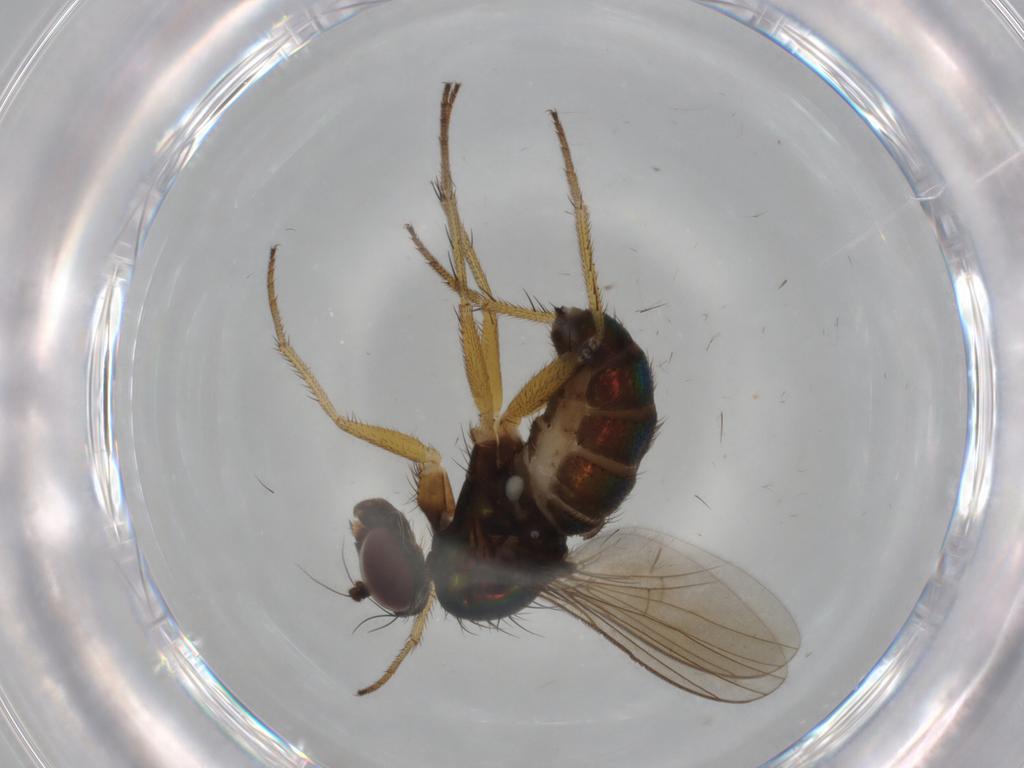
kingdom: Animalia
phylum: Arthropoda
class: Insecta
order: Diptera
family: Dolichopodidae
